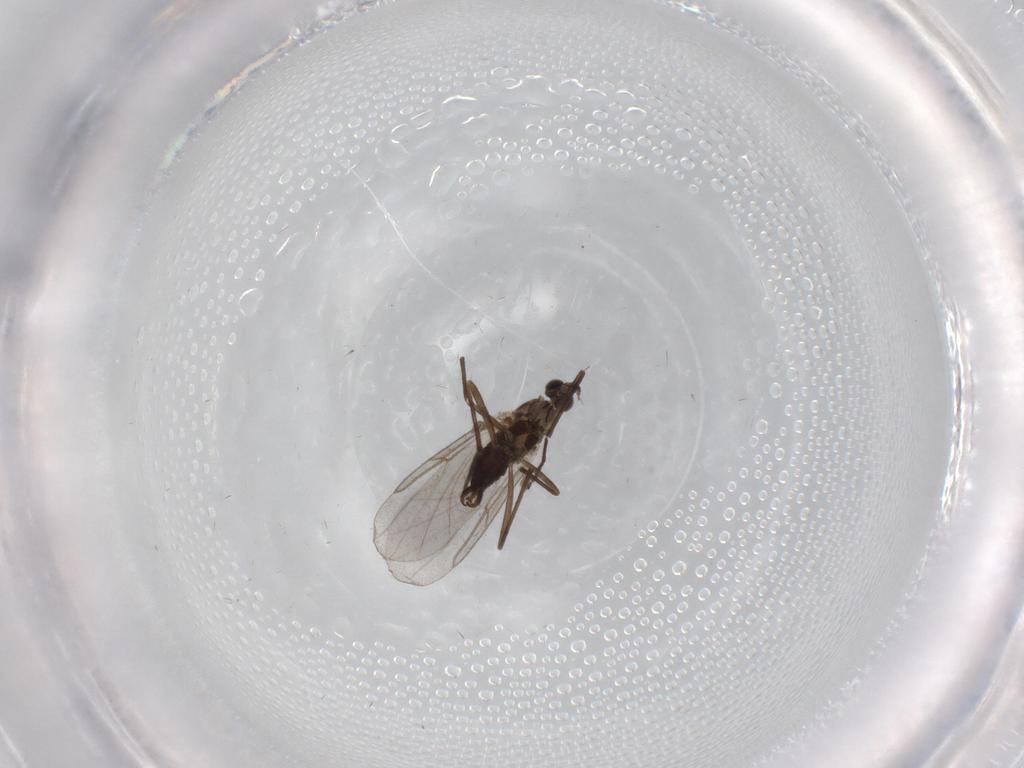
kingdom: Animalia
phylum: Arthropoda
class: Insecta
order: Diptera
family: Cecidomyiidae
